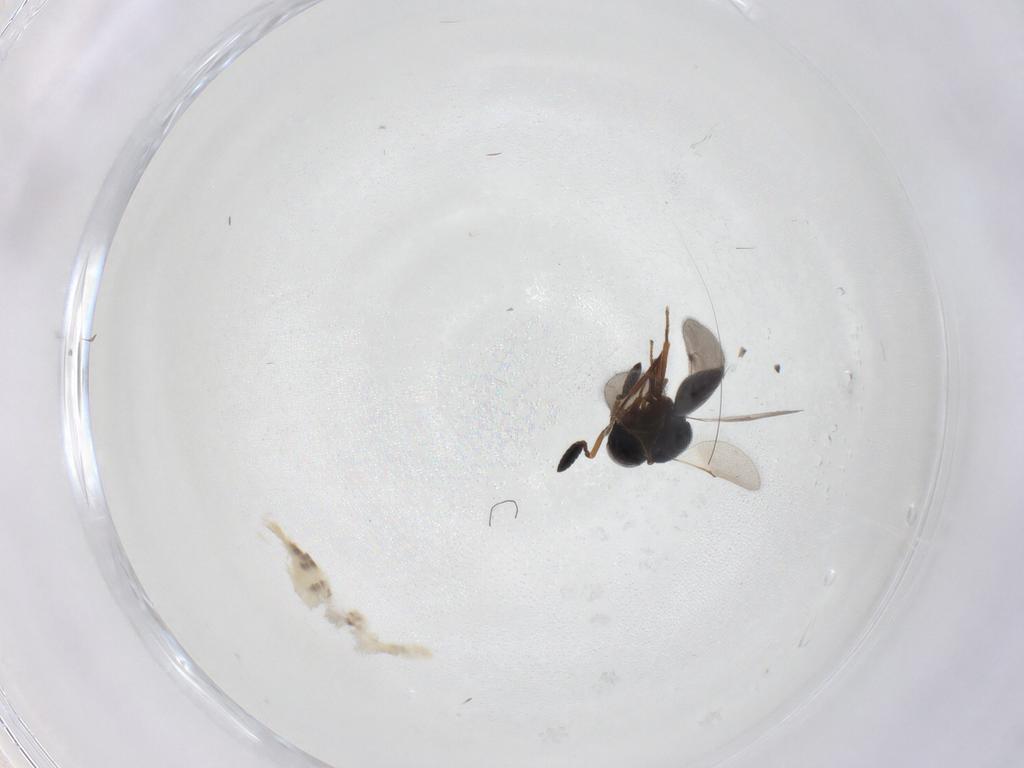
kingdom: Animalia
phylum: Arthropoda
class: Insecta
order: Hymenoptera
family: Scelionidae
